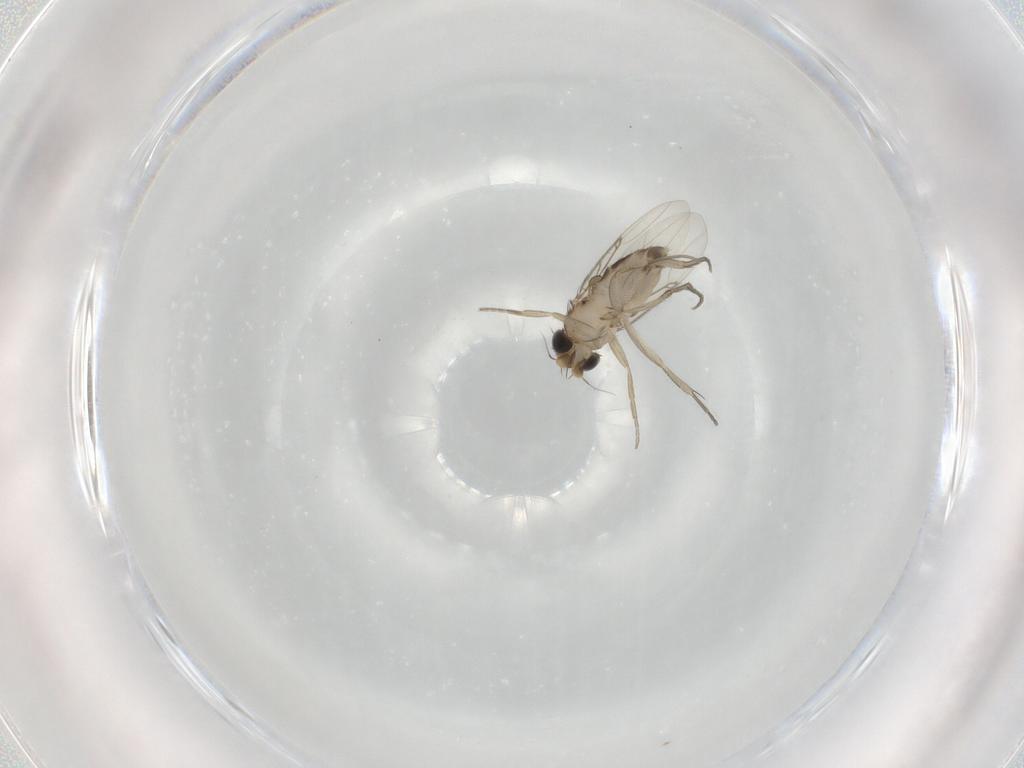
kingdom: Animalia
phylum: Arthropoda
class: Insecta
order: Diptera
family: Phoridae
